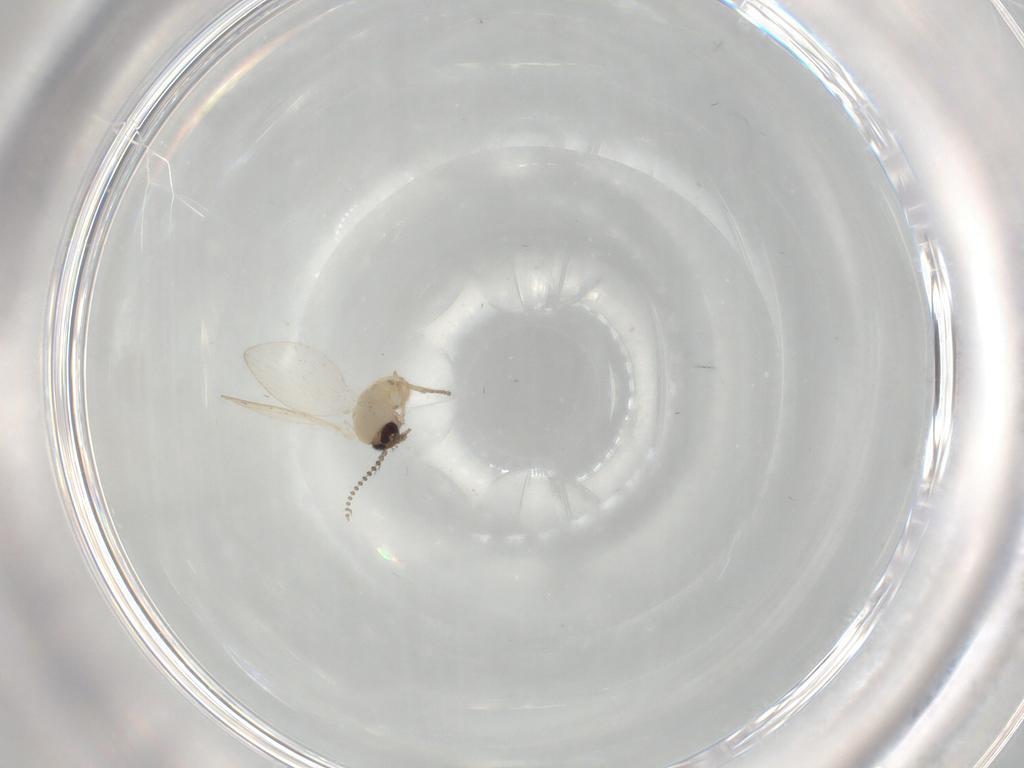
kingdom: Animalia
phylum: Arthropoda
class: Insecta
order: Diptera
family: Psychodidae
